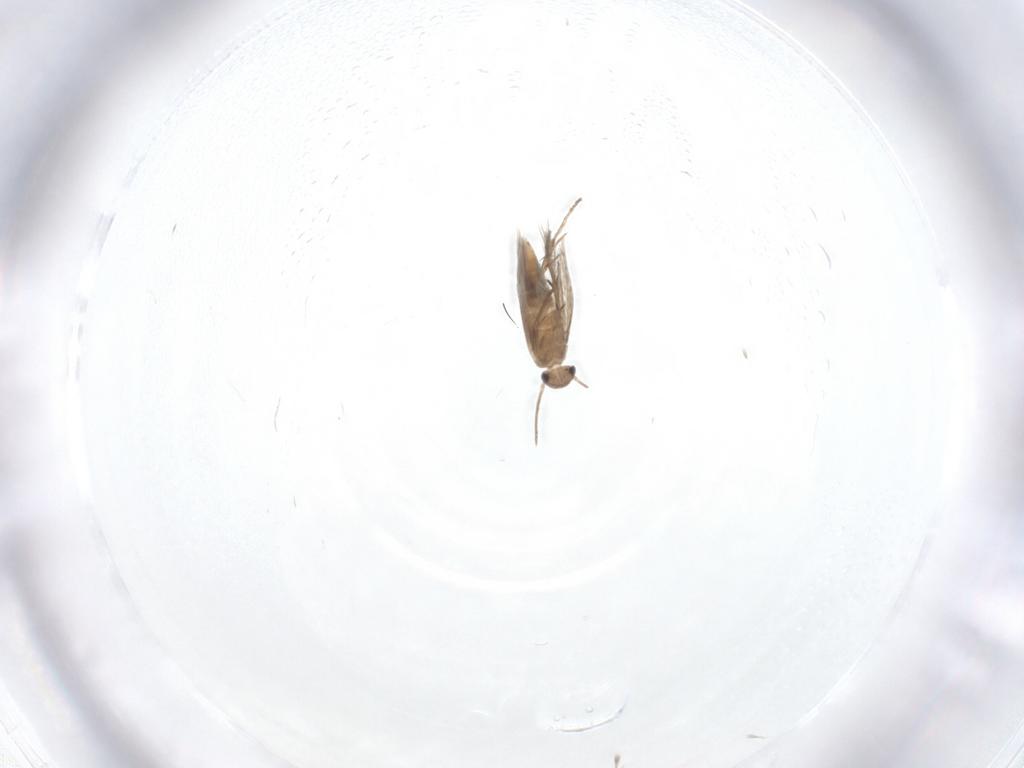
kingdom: Animalia
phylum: Arthropoda
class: Insecta
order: Lepidoptera
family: Heliozelidae
